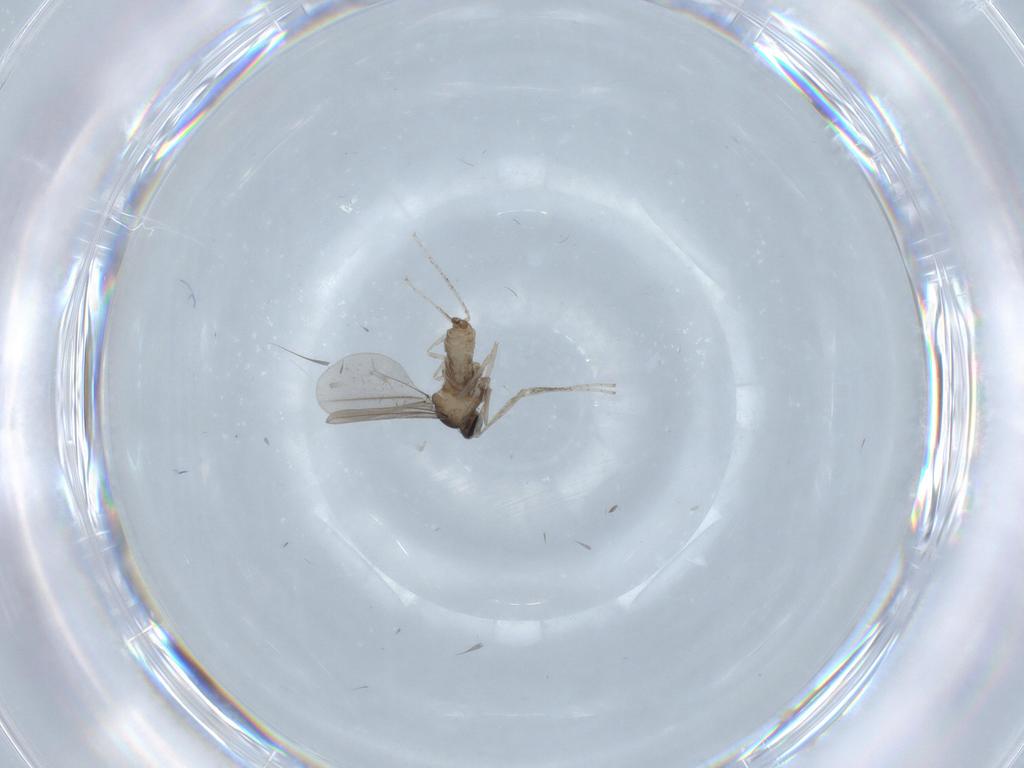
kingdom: Animalia
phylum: Arthropoda
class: Insecta
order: Diptera
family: Cecidomyiidae
